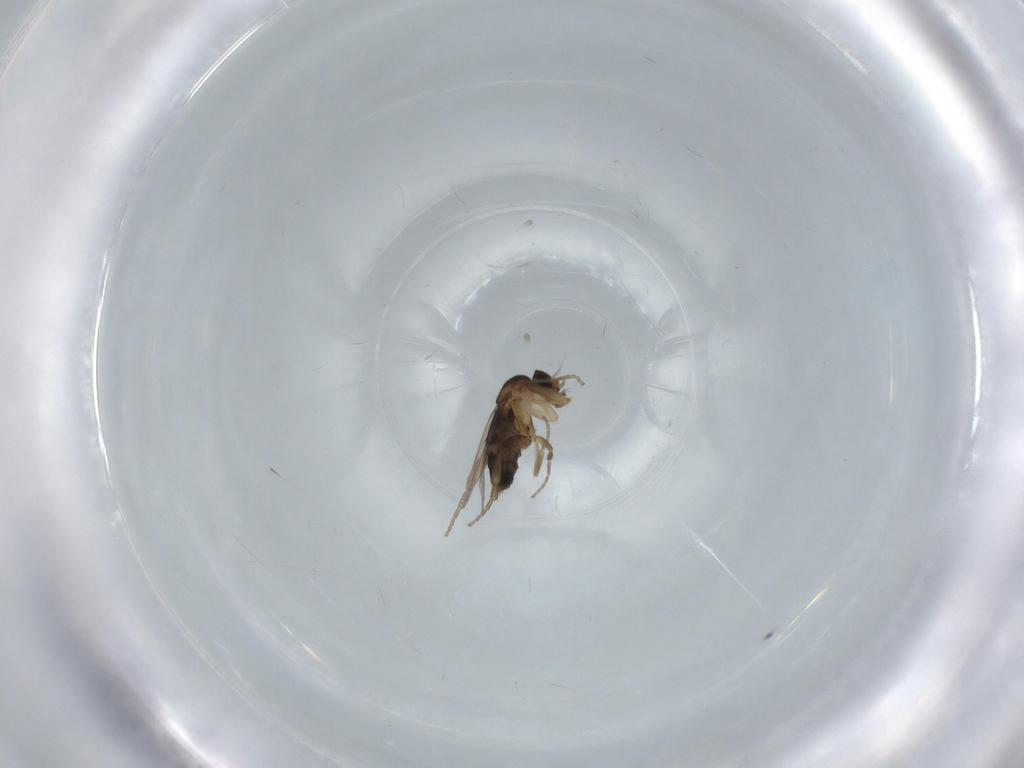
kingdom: Animalia
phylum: Arthropoda
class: Insecta
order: Diptera
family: Phoridae
